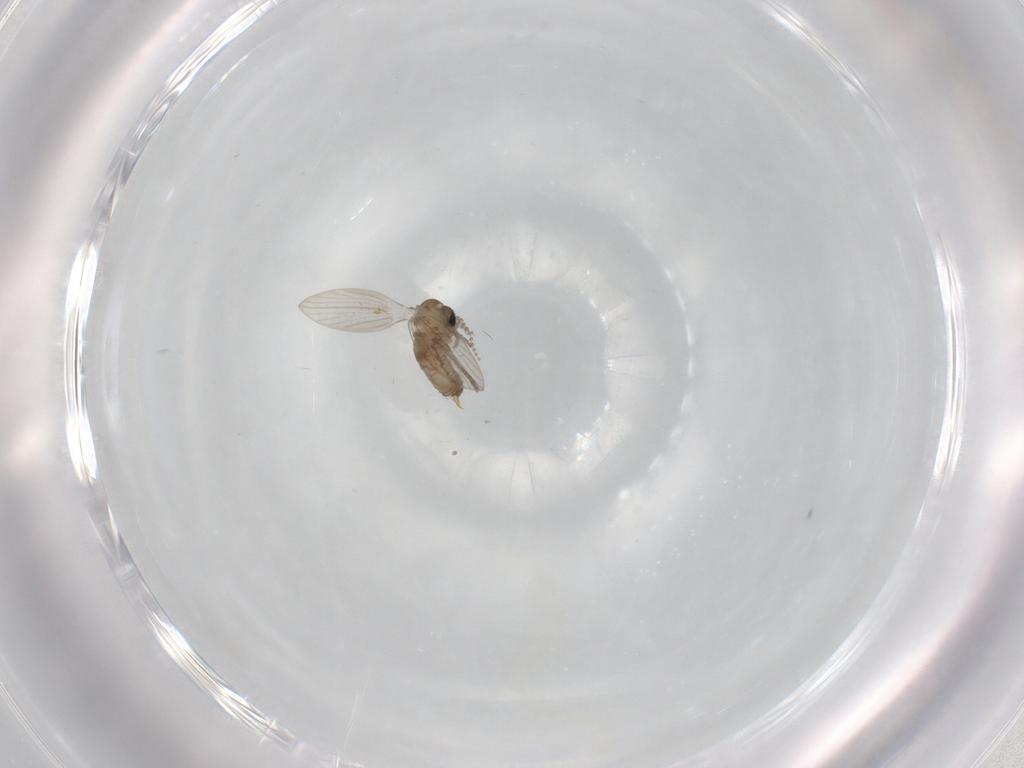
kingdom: Animalia
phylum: Arthropoda
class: Insecta
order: Diptera
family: Psychodidae
